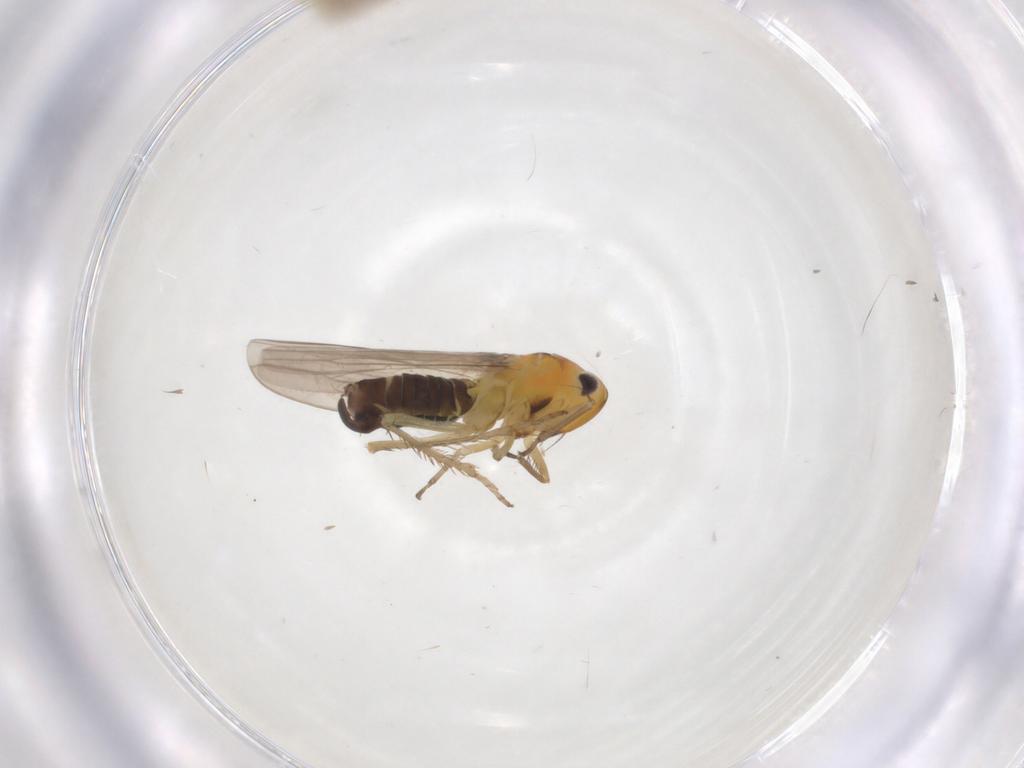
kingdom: Animalia
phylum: Arthropoda
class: Insecta
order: Hemiptera
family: Cicadellidae
